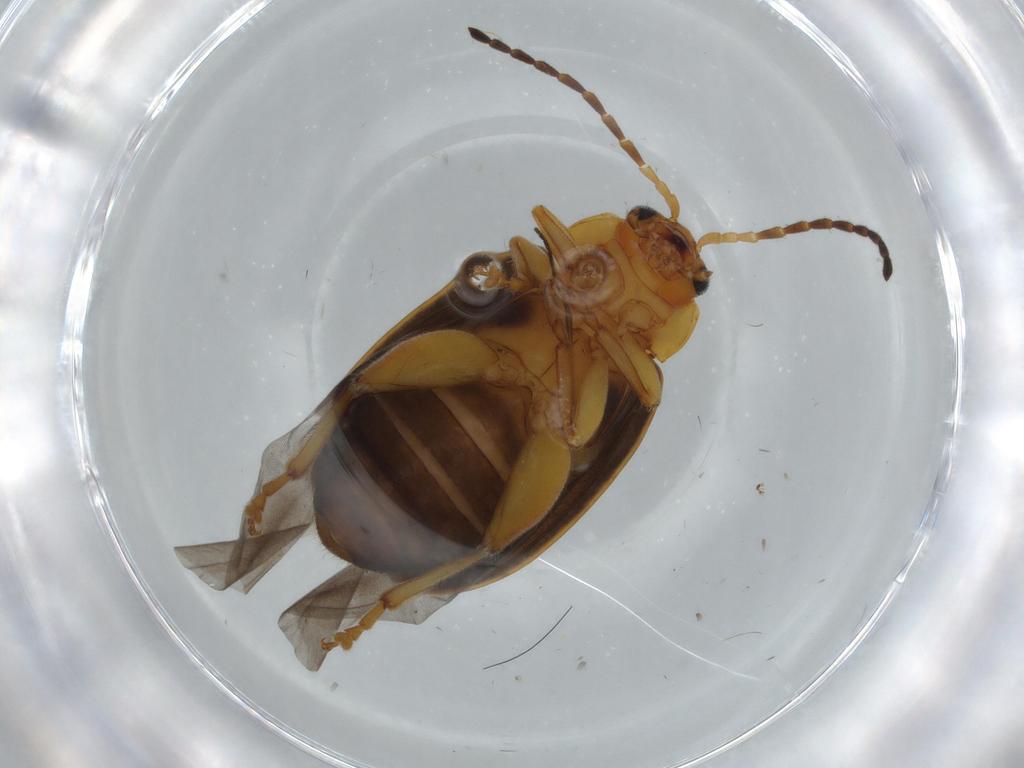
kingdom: Animalia
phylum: Arthropoda
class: Insecta
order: Coleoptera
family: Chrysomelidae
